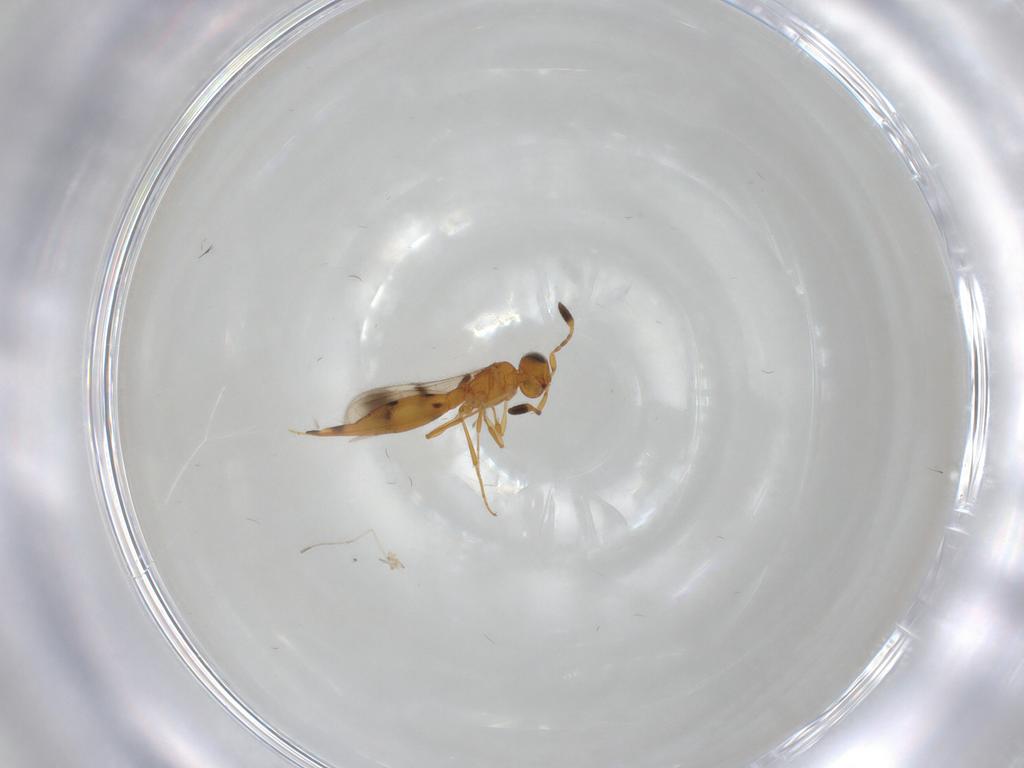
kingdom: Animalia
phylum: Arthropoda
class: Insecta
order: Hymenoptera
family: Scelionidae
